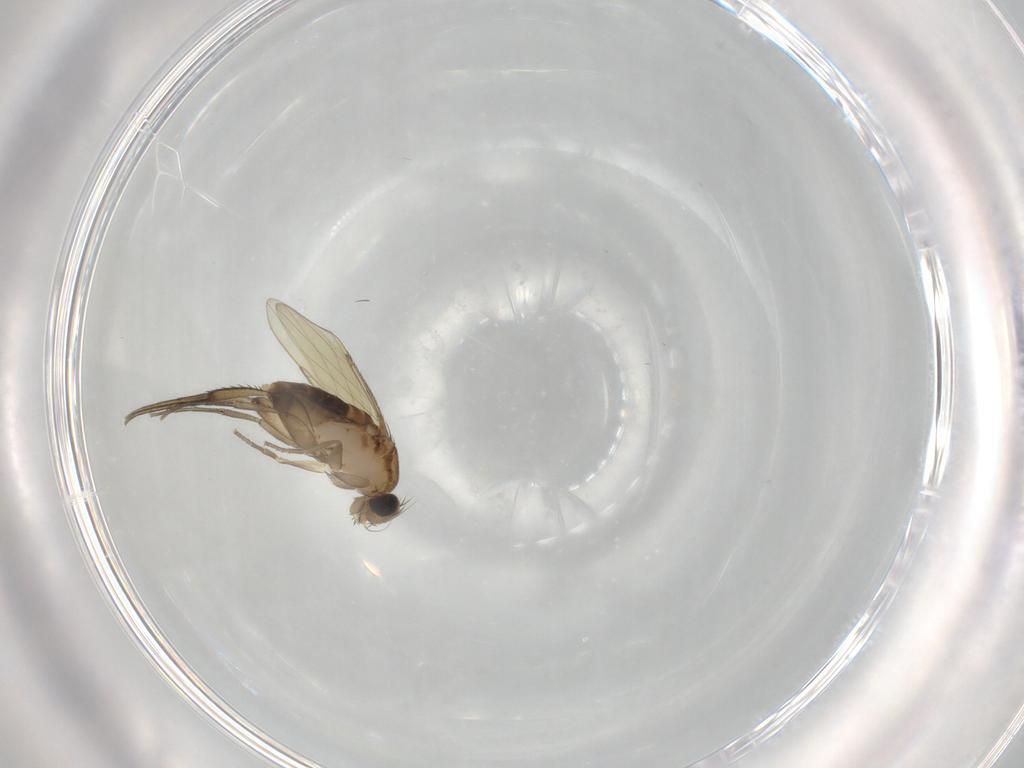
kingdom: Animalia
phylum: Arthropoda
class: Insecta
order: Diptera
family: Phoridae
